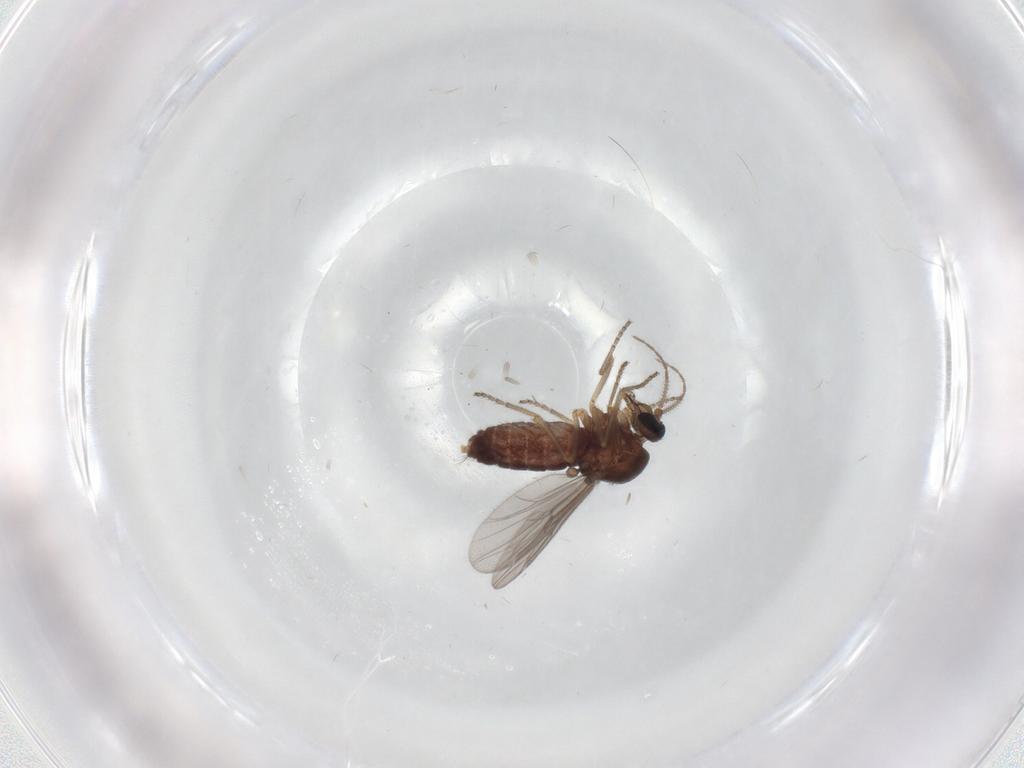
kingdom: Animalia
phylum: Arthropoda
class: Insecta
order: Diptera
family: Ceratopogonidae
